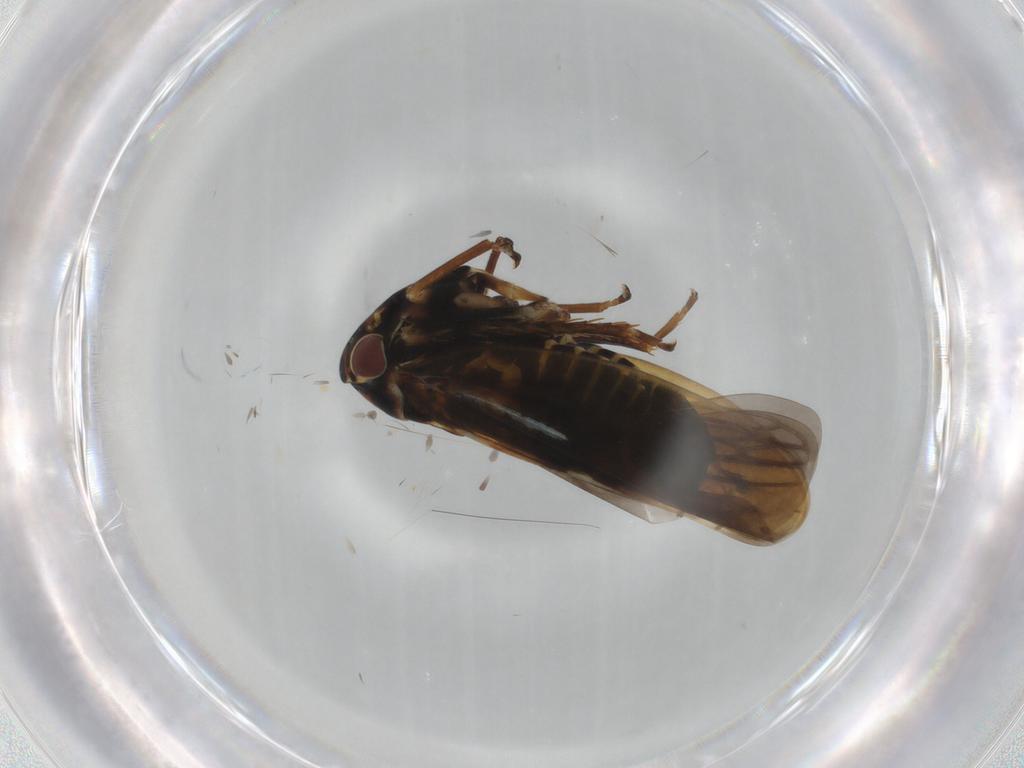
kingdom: Animalia
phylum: Arthropoda
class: Insecta
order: Hemiptera
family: Cicadellidae
